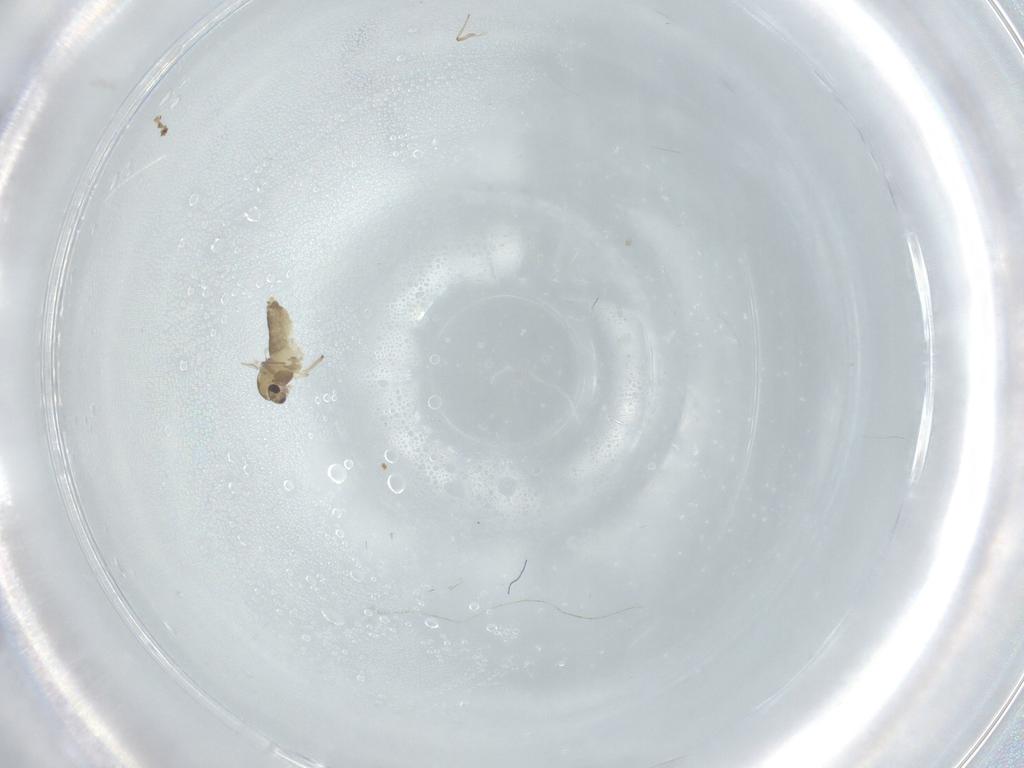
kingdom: Animalia
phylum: Arthropoda
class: Insecta
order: Diptera
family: Chironomidae
